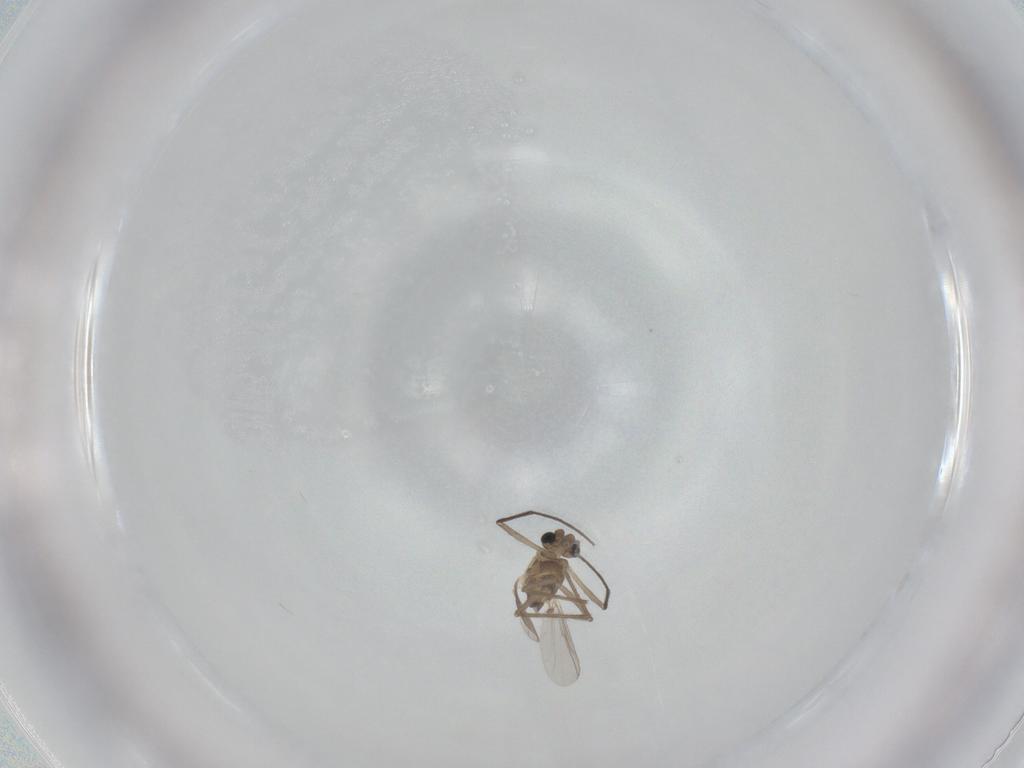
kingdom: Animalia
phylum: Arthropoda
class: Insecta
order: Diptera
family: Chironomidae
